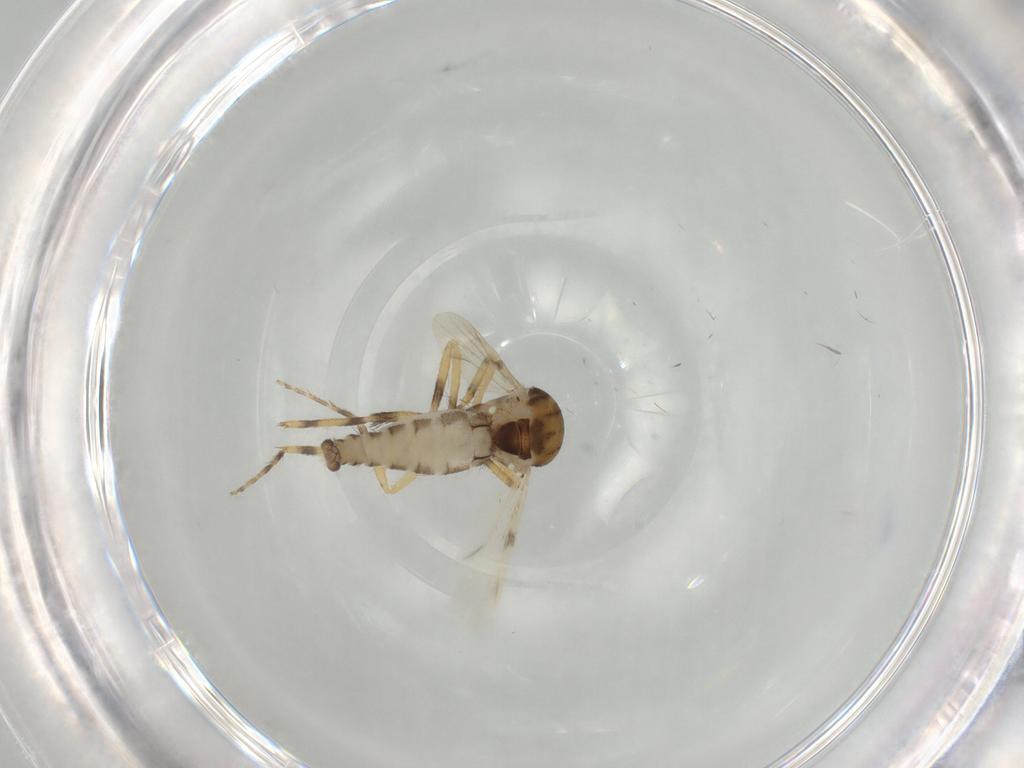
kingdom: Animalia
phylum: Arthropoda
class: Insecta
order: Diptera
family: Ceratopogonidae
